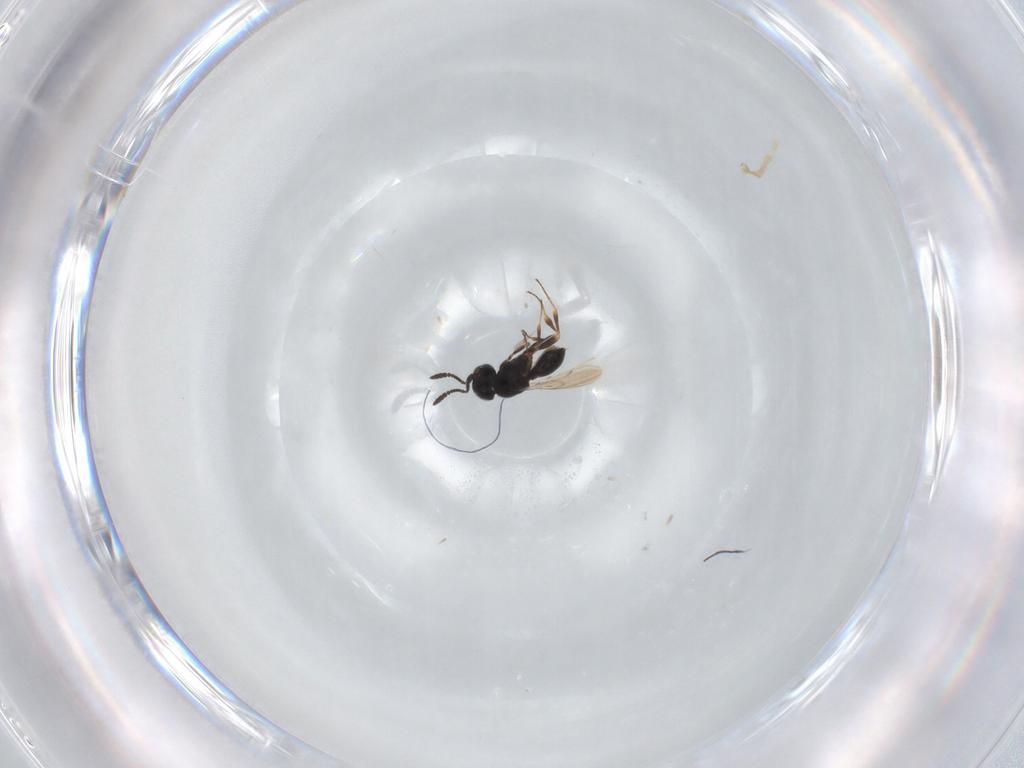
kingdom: Animalia
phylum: Arthropoda
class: Insecta
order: Hymenoptera
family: Scelionidae
